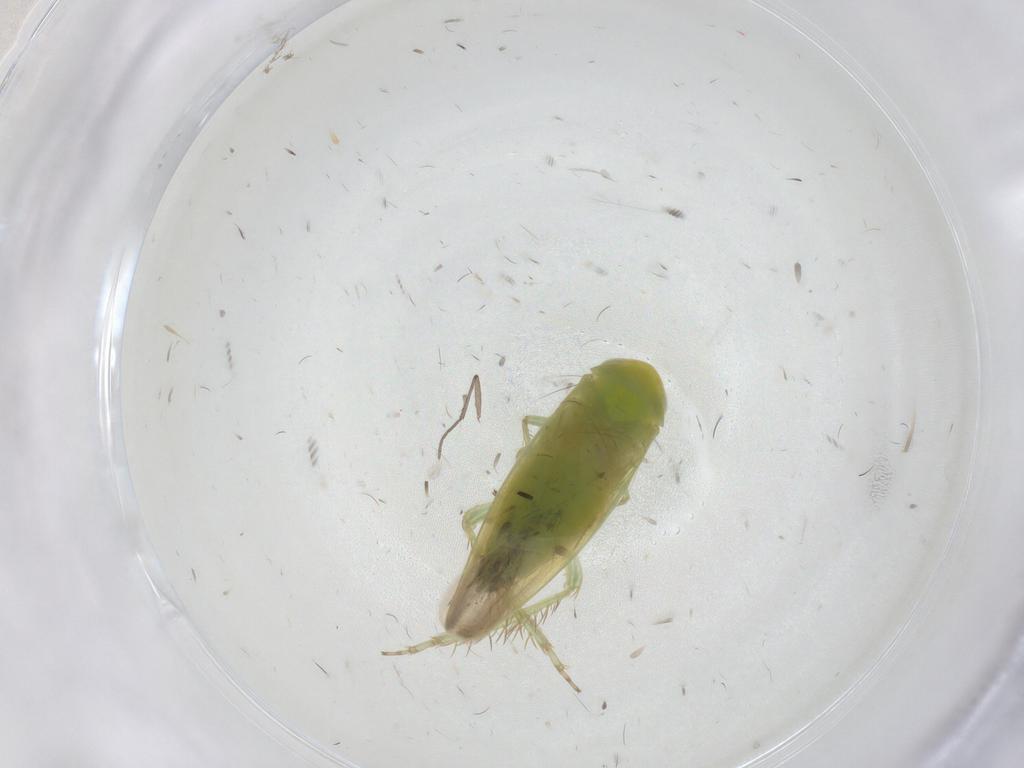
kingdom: Animalia
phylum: Arthropoda
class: Insecta
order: Hemiptera
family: Cicadellidae
